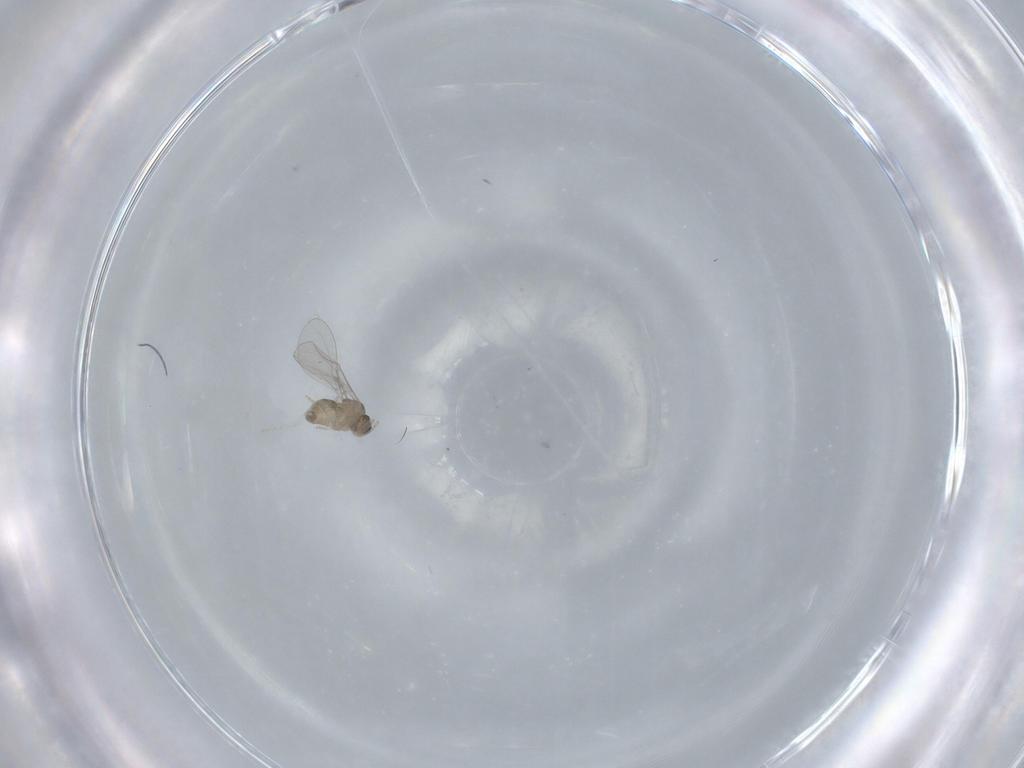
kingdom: Animalia
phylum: Arthropoda
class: Insecta
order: Diptera
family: Cecidomyiidae
